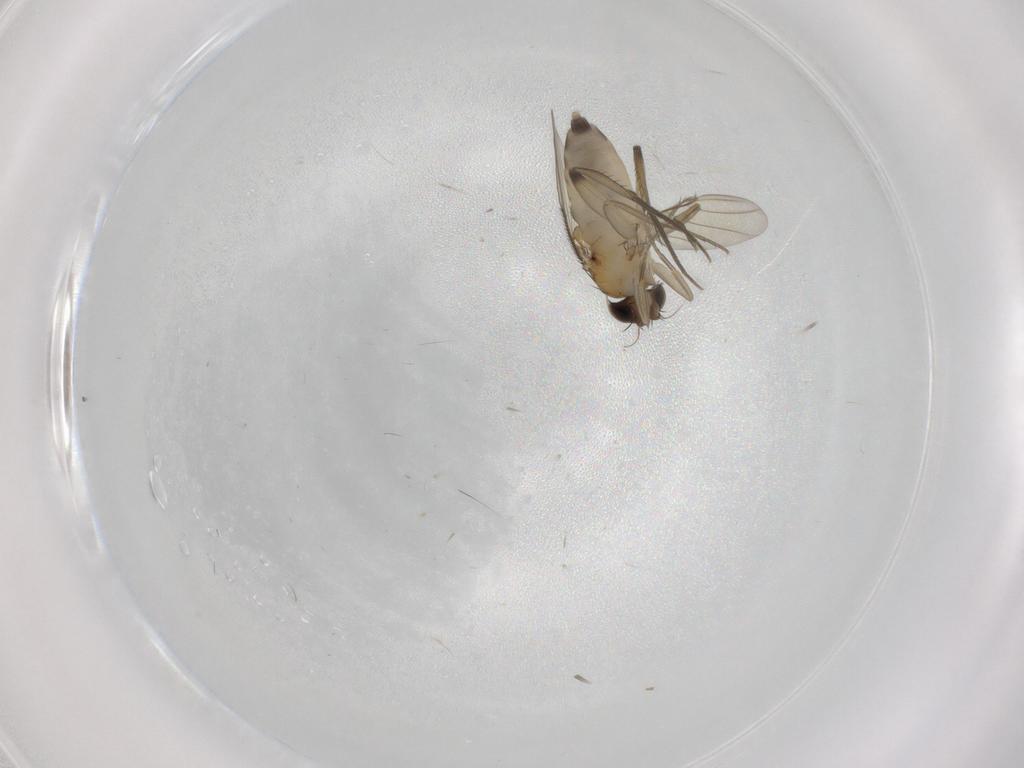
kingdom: Animalia
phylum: Arthropoda
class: Insecta
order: Diptera
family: Phoridae
